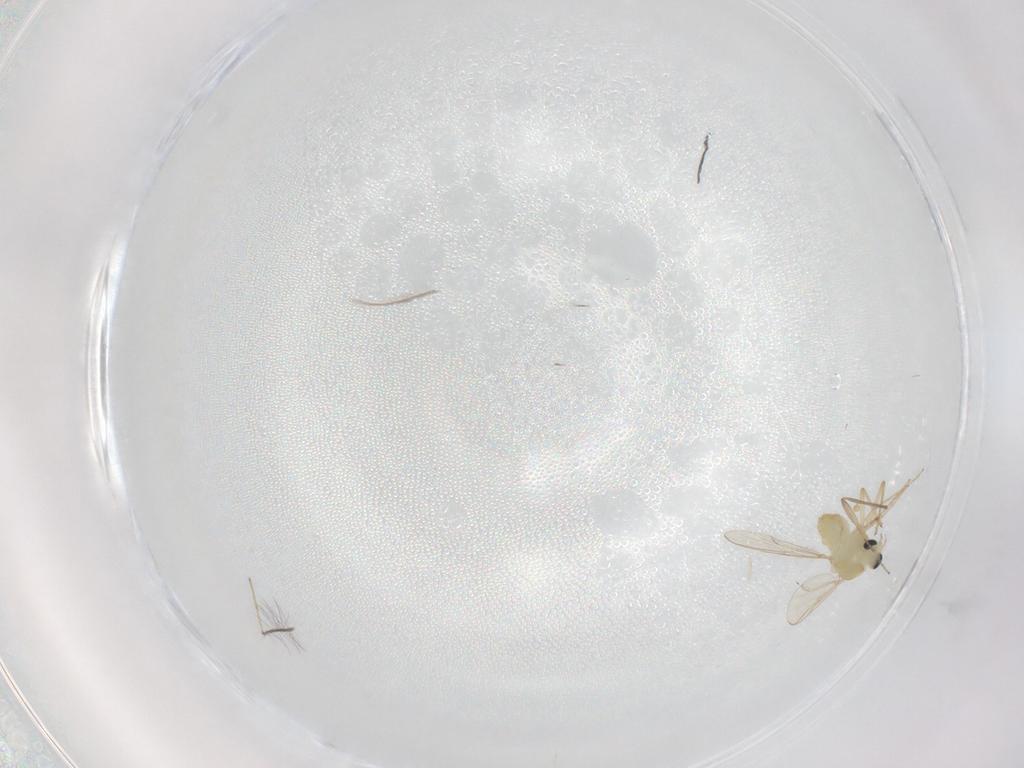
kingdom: Animalia
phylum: Arthropoda
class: Insecta
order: Diptera
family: Chironomidae
